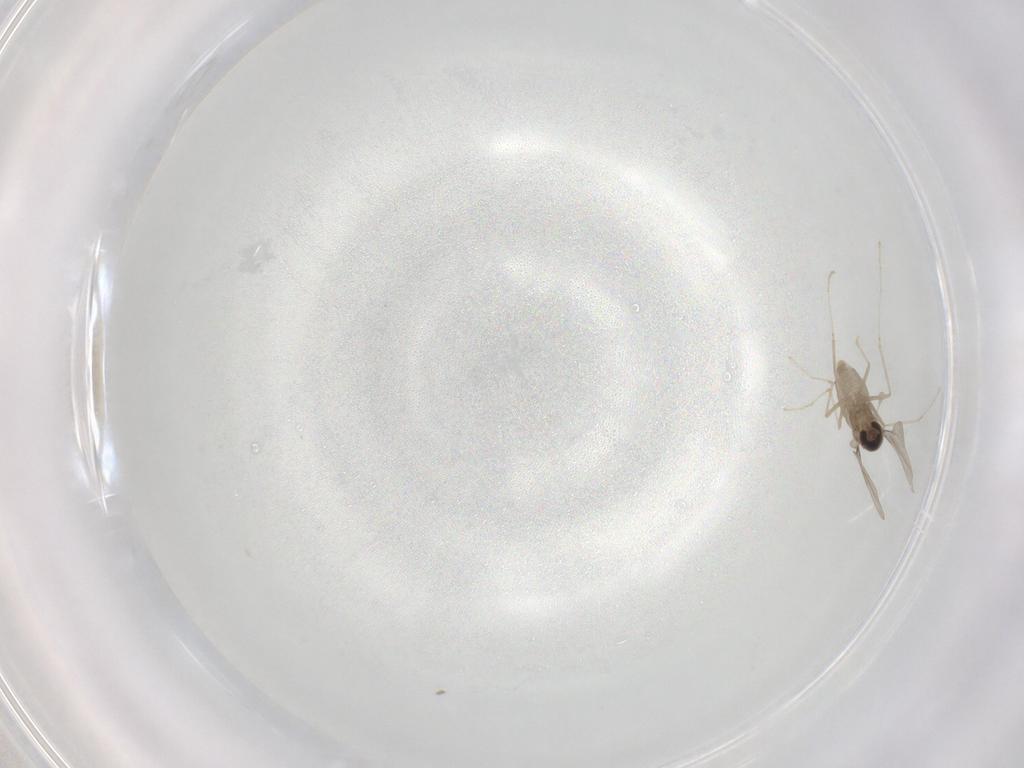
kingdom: Animalia
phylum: Arthropoda
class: Insecta
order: Diptera
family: Cecidomyiidae
